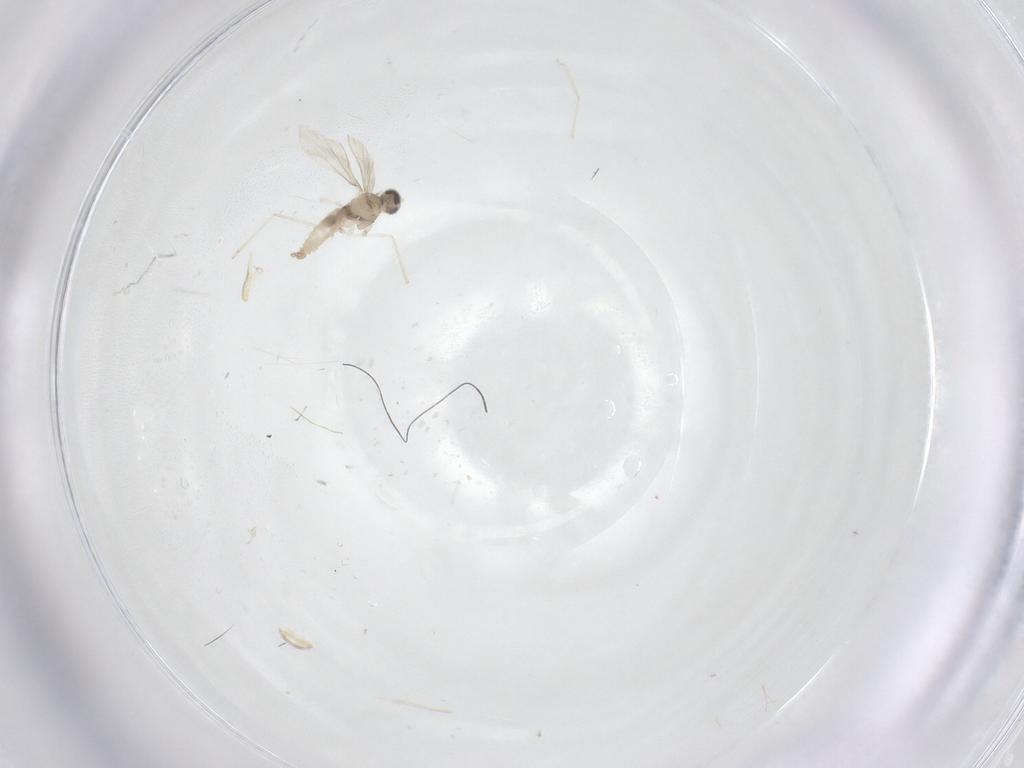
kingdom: Animalia
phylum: Arthropoda
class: Insecta
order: Diptera
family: Cecidomyiidae
